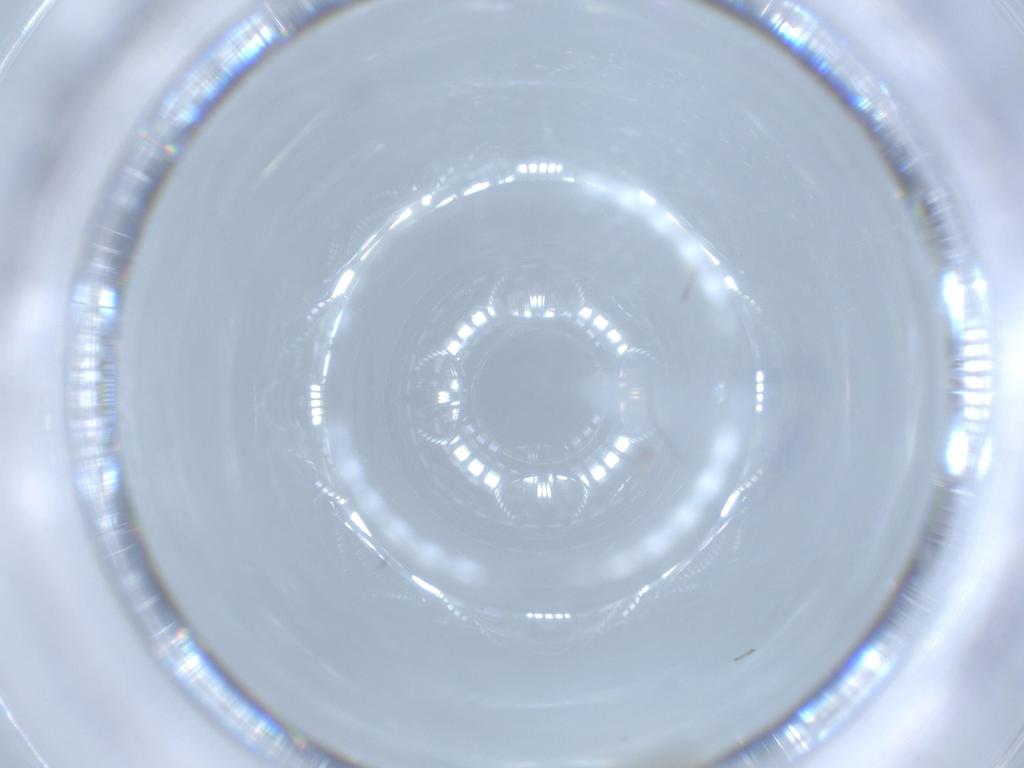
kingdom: Animalia
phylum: Arthropoda
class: Insecta
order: Diptera
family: Chironomidae
